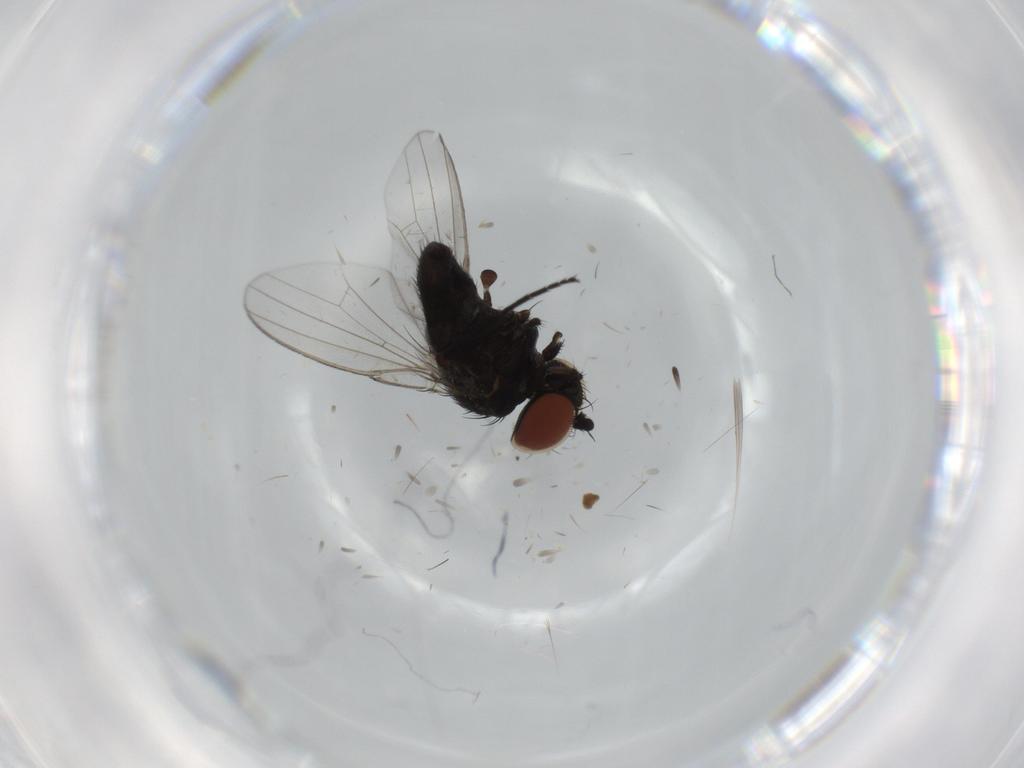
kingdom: Animalia
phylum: Arthropoda
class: Insecta
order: Diptera
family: Milichiidae
